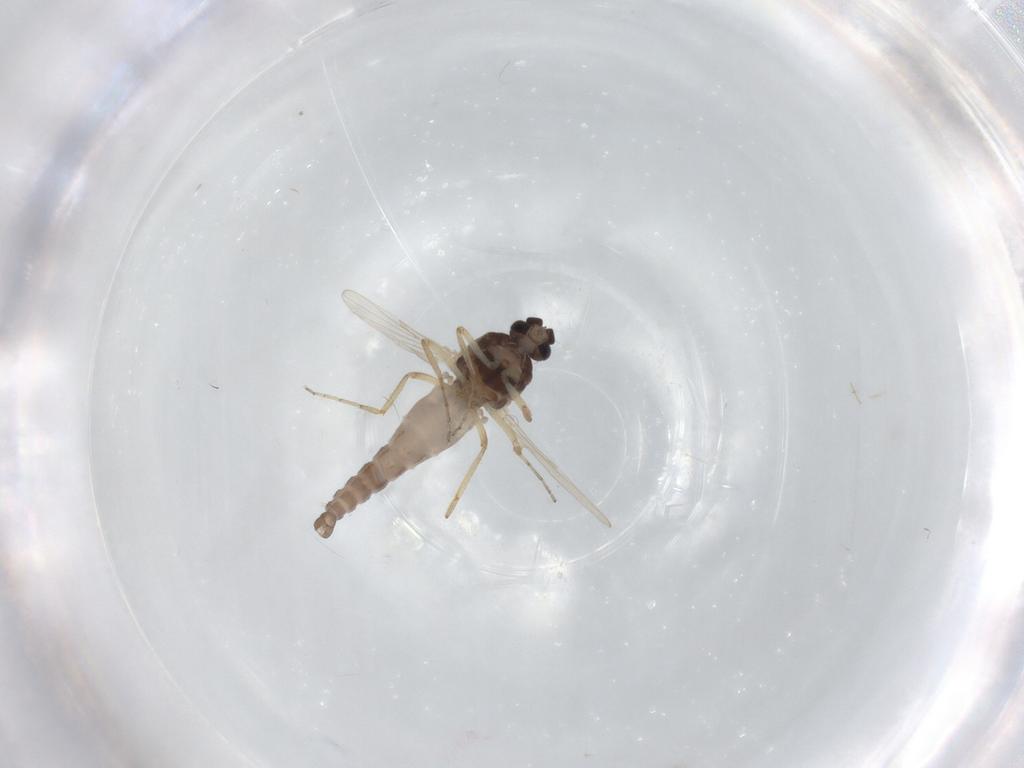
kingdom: Animalia
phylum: Arthropoda
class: Insecta
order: Diptera
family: Ceratopogonidae
